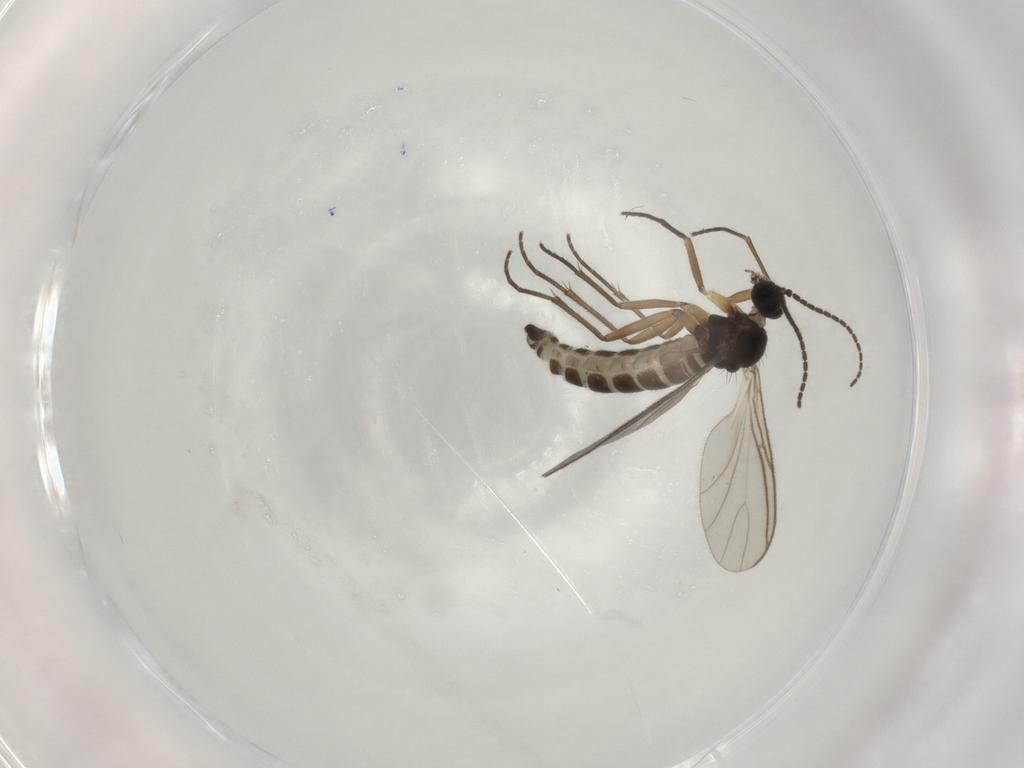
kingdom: Animalia
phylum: Arthropoda
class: Insecta
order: Diptera
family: Sciaridae
